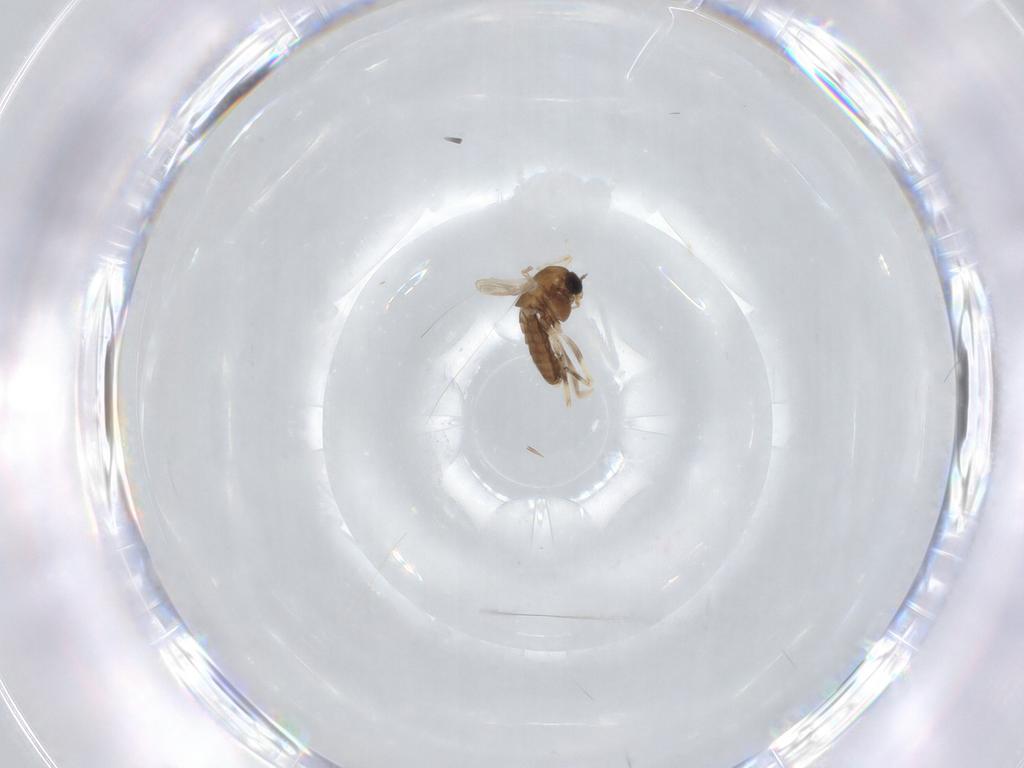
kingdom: Animalia
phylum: Arthropoda
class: Insecta
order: Diptera
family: Chironomidae
